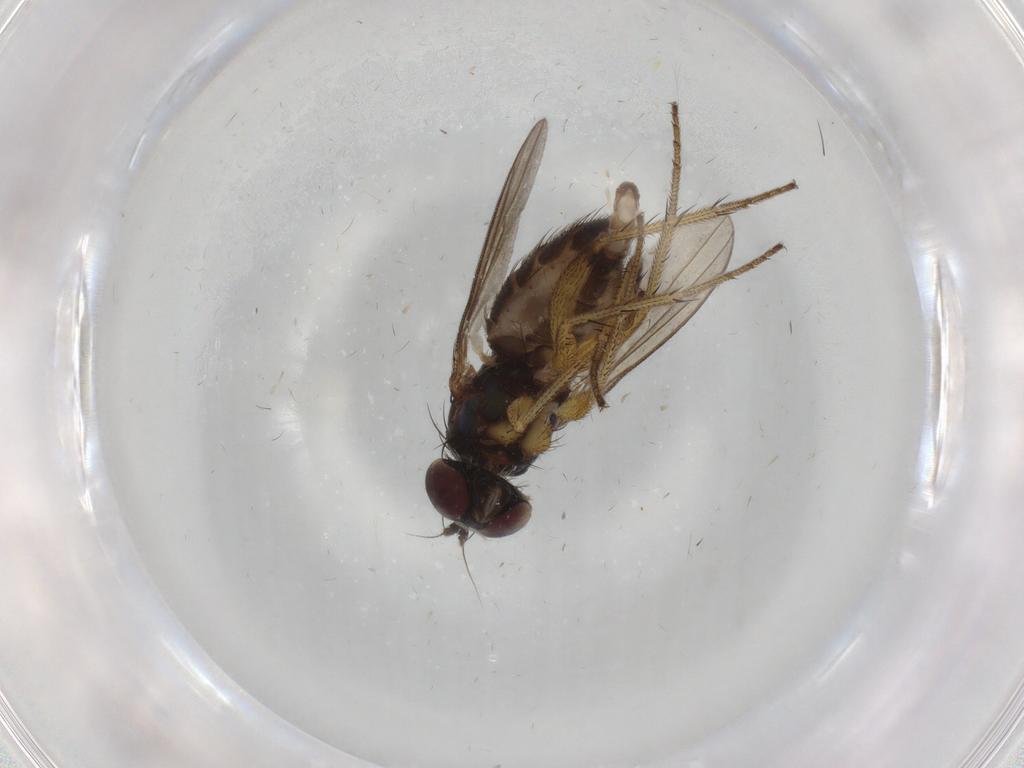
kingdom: Animalia
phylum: Arthropoda
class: Insecta
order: Diptera
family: Dolichopodidae
